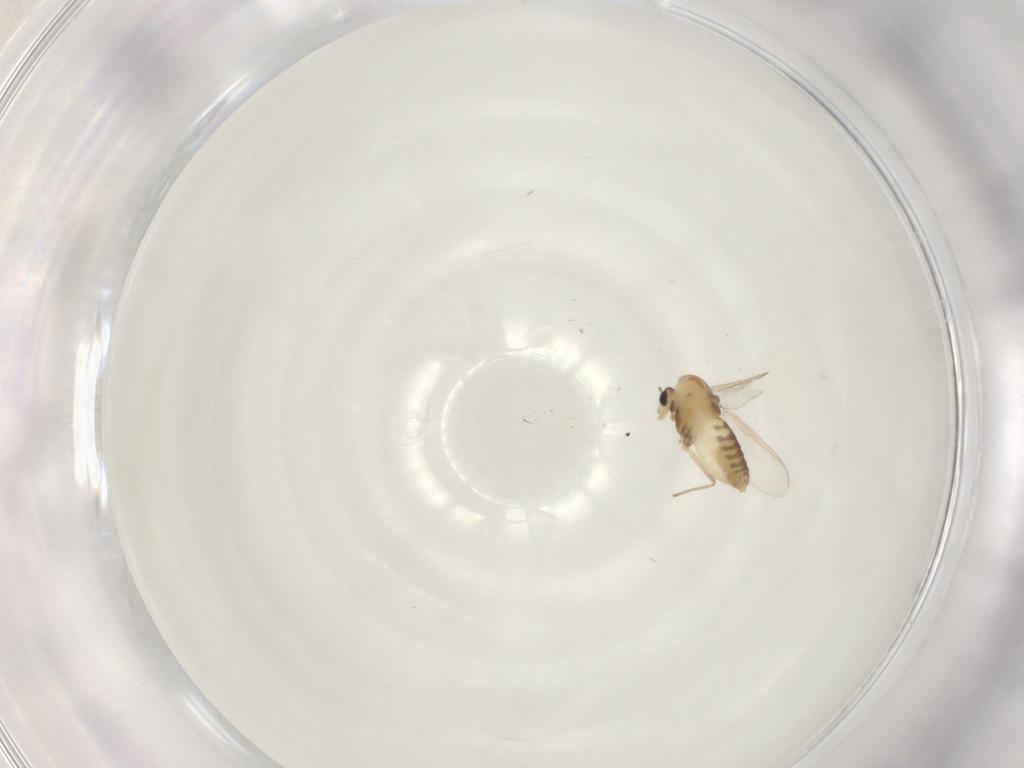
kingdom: Animalia
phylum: Arthropoda
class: Insecta
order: Diptera
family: Chironomidae
